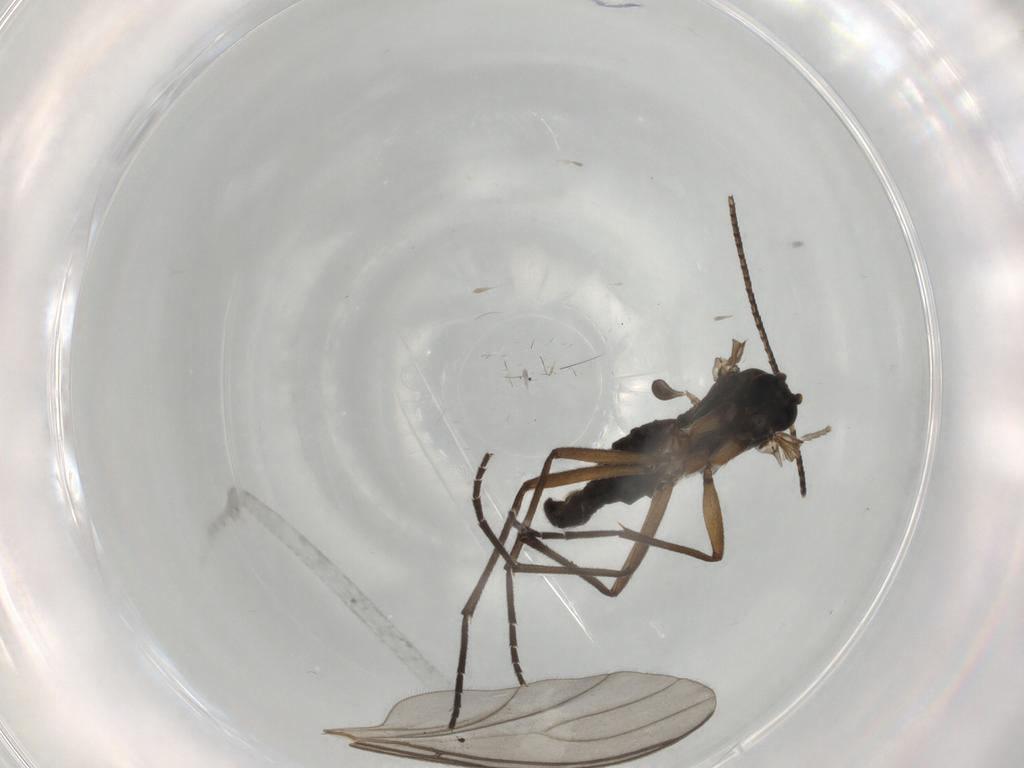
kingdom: Animalia
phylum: Arthropoda
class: Insecta
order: Diptera
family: Sciaridae
